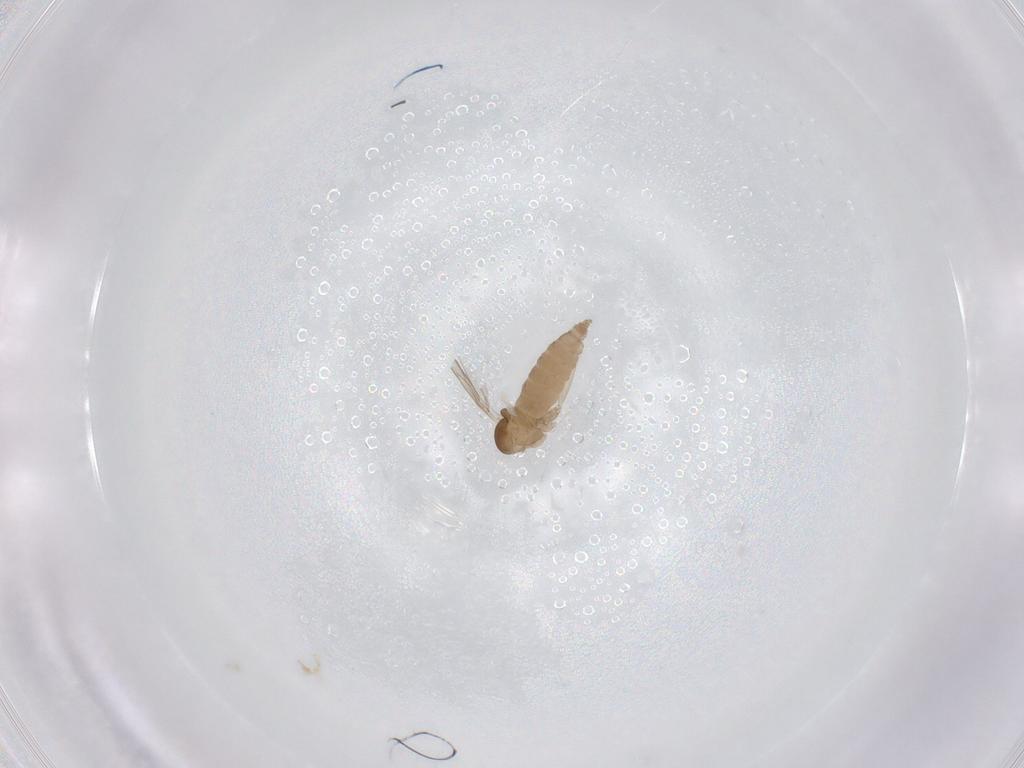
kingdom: Animalia
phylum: Arthropoda
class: Insecta
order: Diptera
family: Cecidomyiidae
